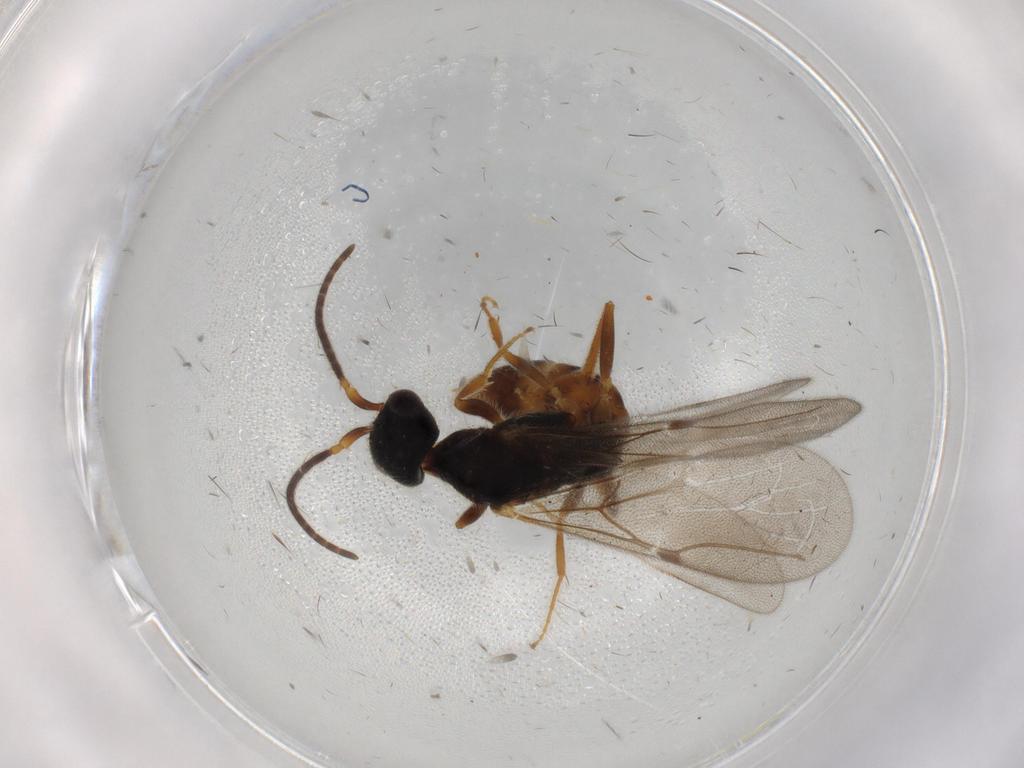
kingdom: Animalia
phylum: Arthropoda
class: Insecta
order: Hymenoptera
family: Bethylidae
